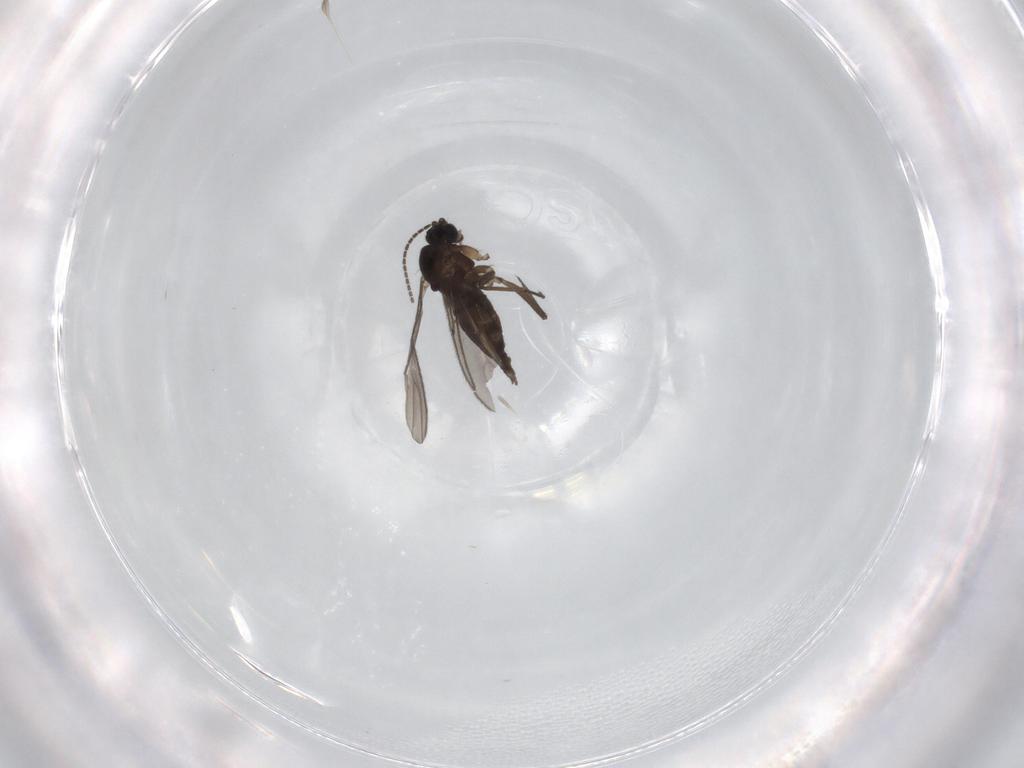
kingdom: Animalia
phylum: Arthropoda
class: Insecta
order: Diptera
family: Sciaridae
